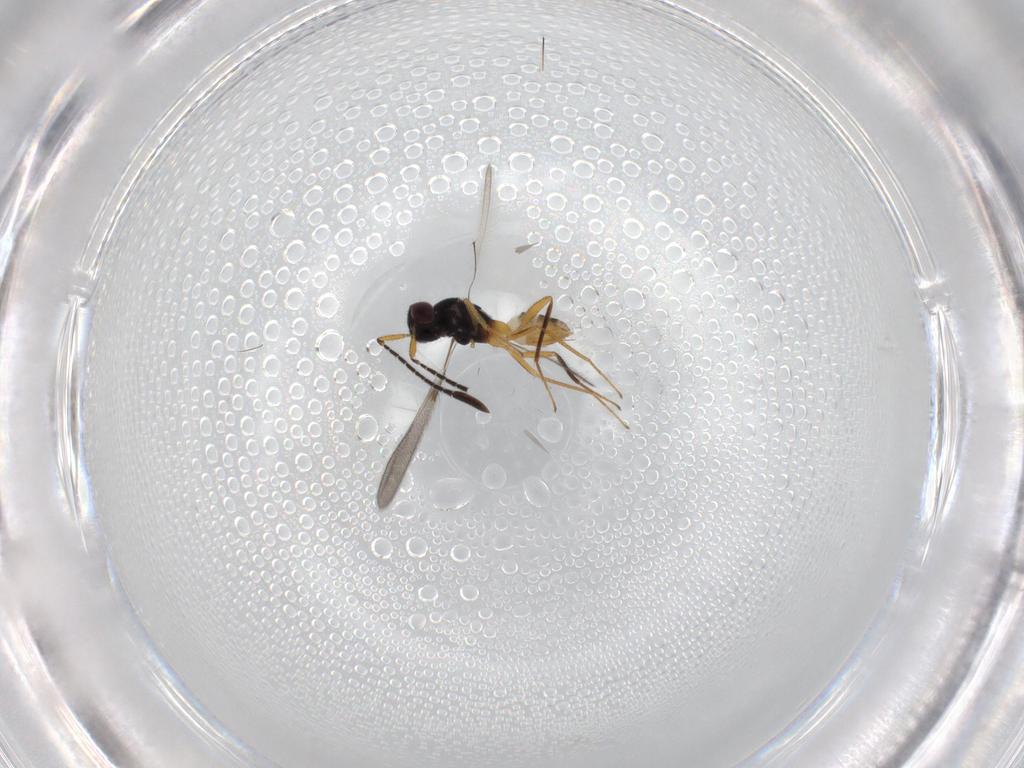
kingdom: Animalia
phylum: Arthropoda
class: Insecta
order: Hymenoptera
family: Mymaridae
